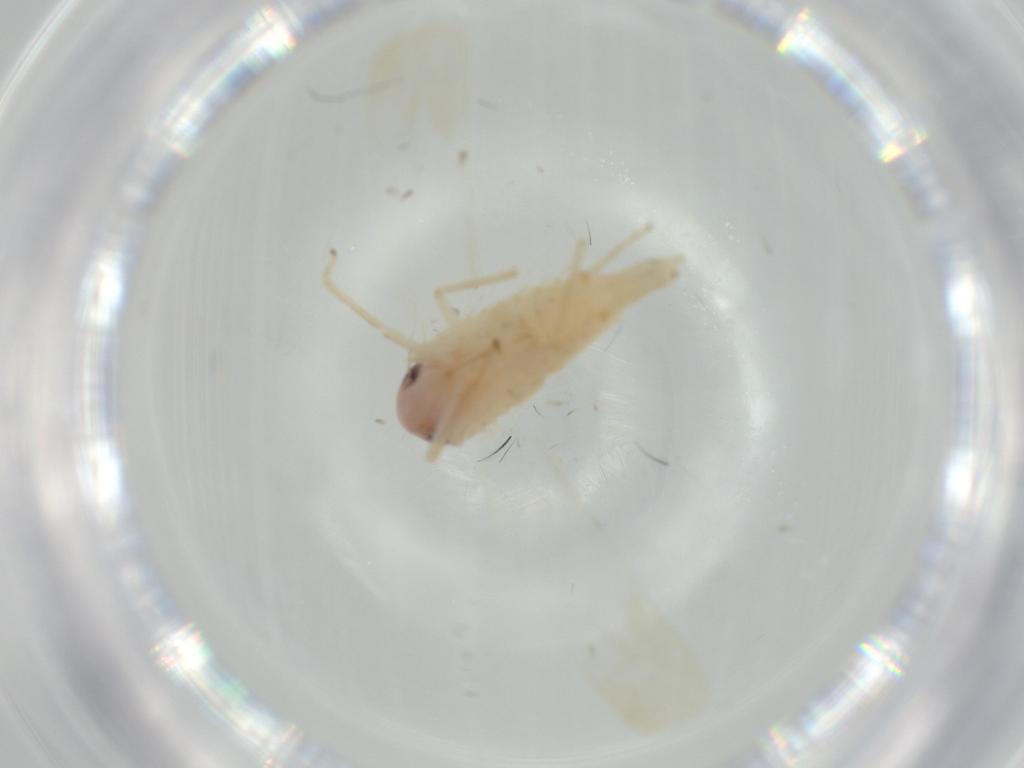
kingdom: Animalia
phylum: Arthropoda
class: Insecta
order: Hemiptera
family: Cicadellidae
